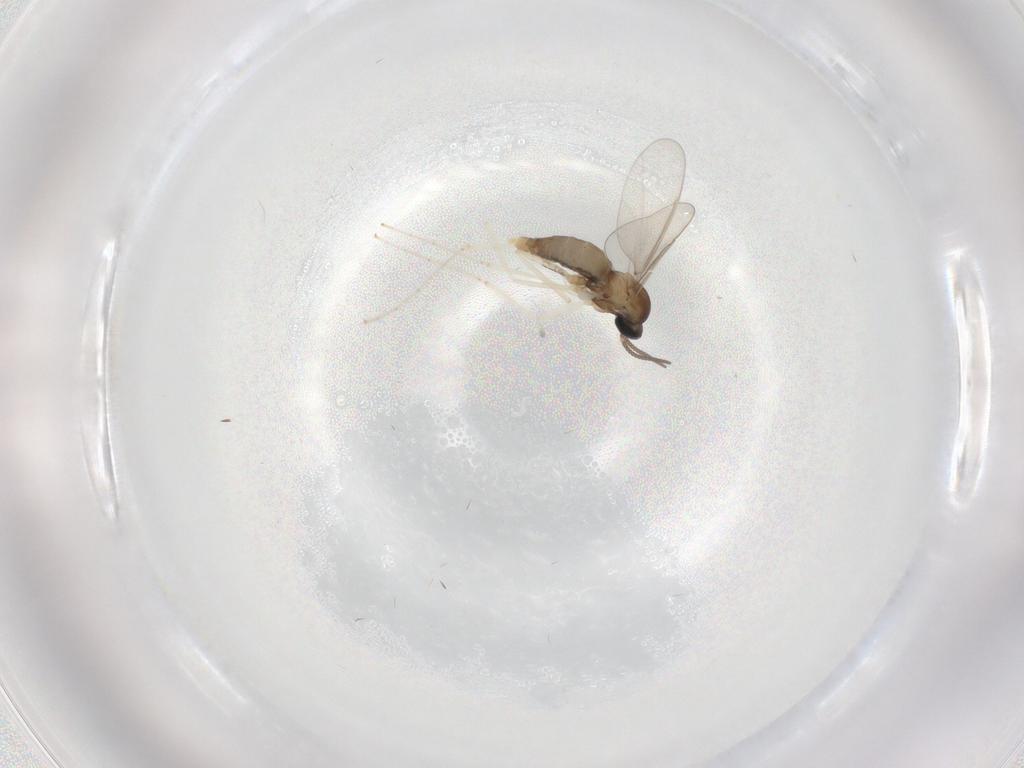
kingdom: Animalia
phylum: Arthropoda
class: Insecta
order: Diptera
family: Cecidomyiidae
